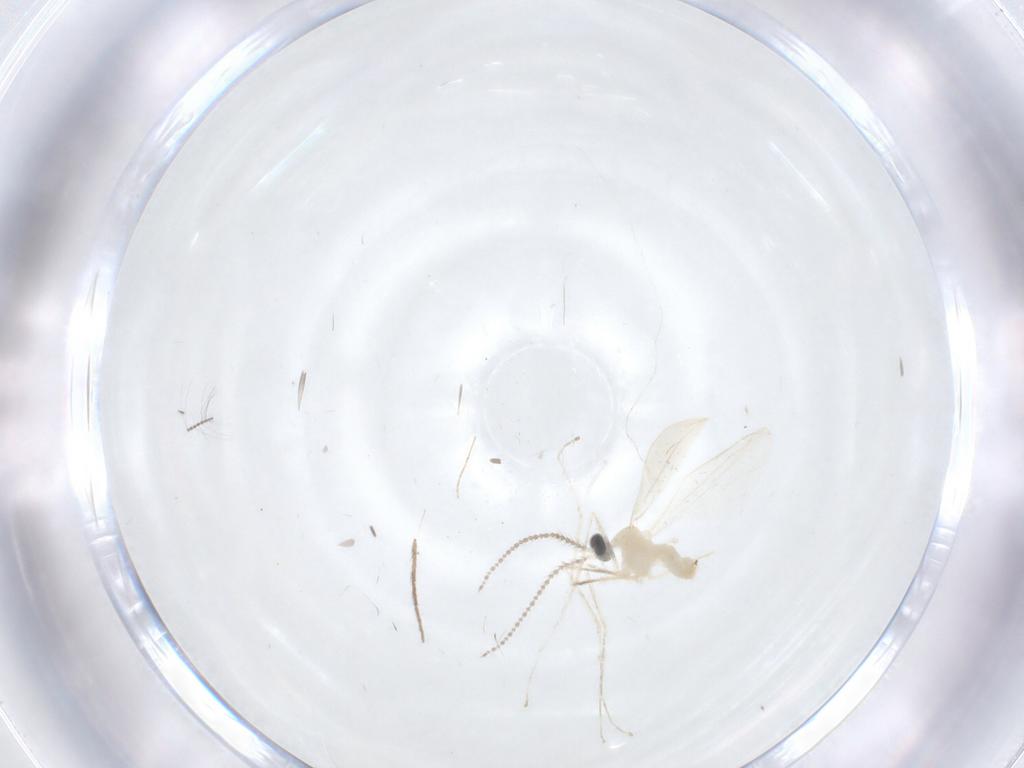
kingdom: Animalia
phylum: Arthropoda
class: Insecta
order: Diptera
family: Chironomidae
